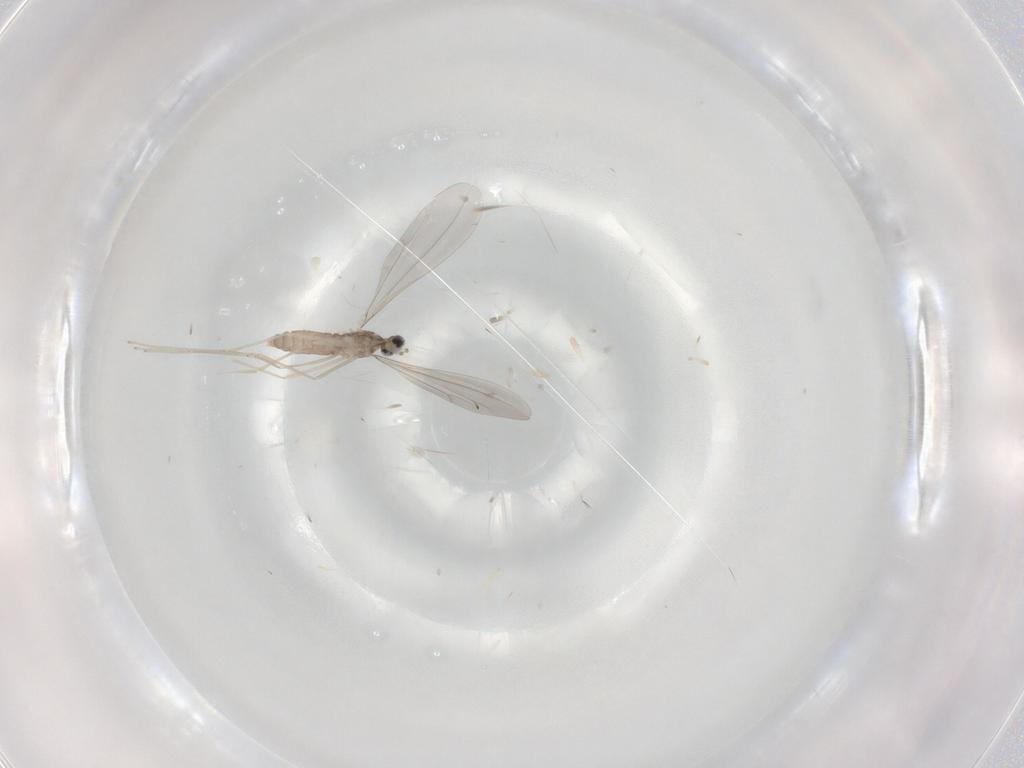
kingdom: Animalia
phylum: Arthropoda
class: Insecta
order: Diptera
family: Cecidomyiidae
